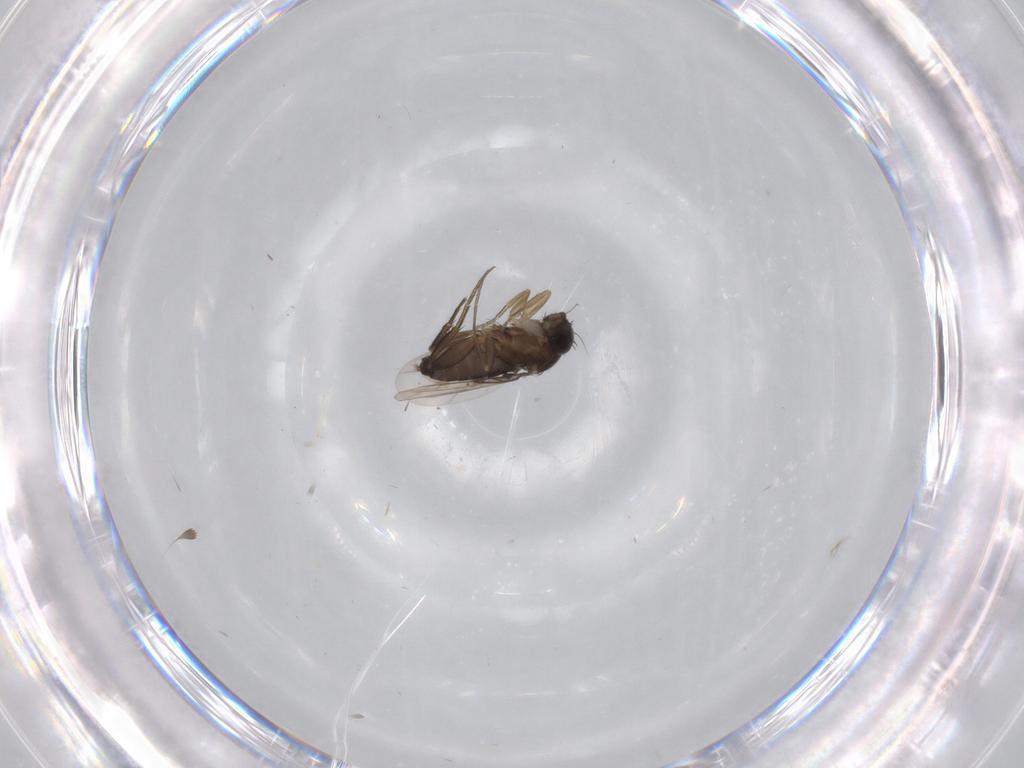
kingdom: Animalia
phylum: Arthropoda
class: Insecta
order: Diptera
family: Phoridae
